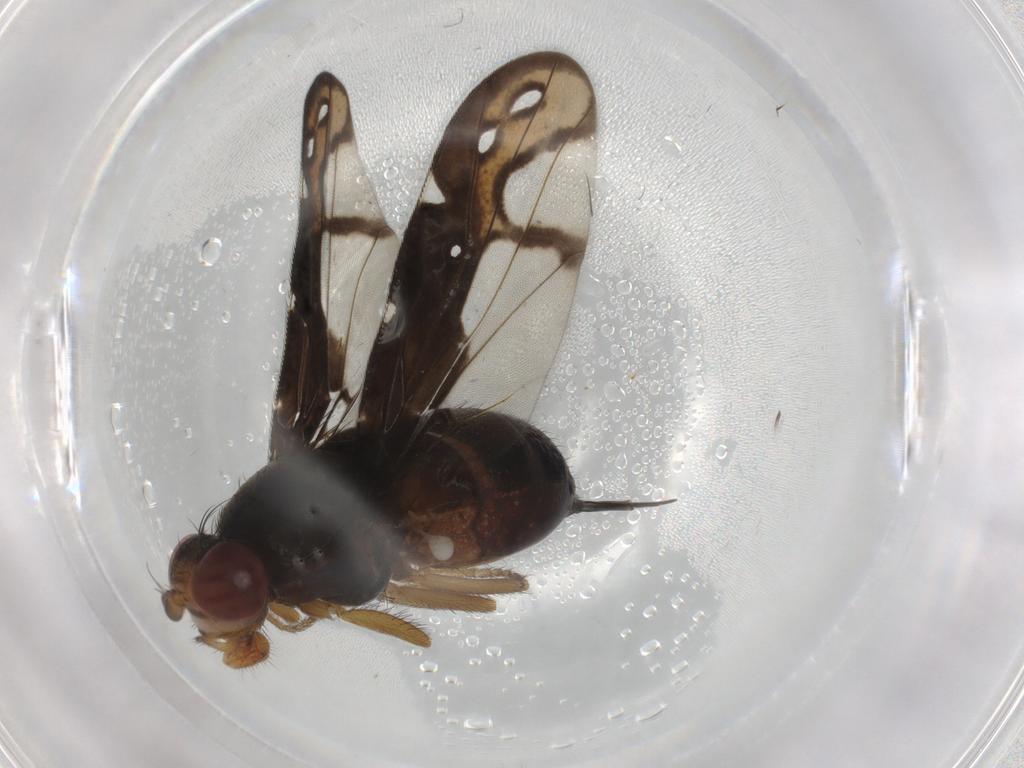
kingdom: Animalia
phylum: Arthropoda
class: Insecta
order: Diptera
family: Ulidiidae
